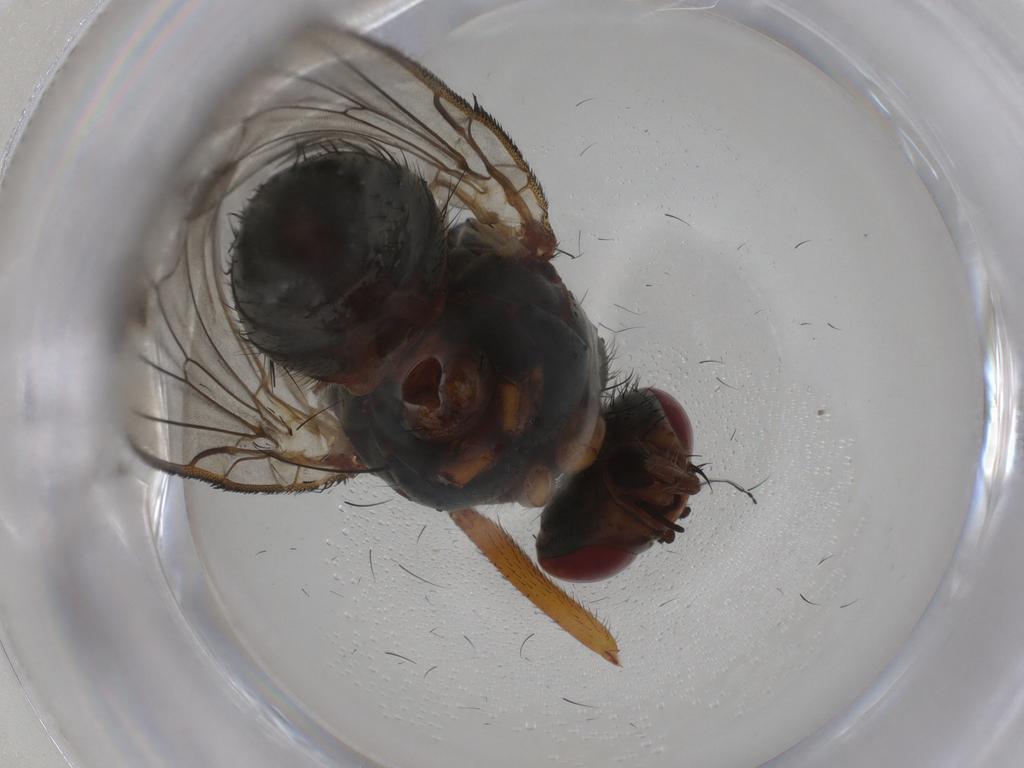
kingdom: Animalia
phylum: Arthropoda
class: Insecta
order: Diptera
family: Anthomyiidae
